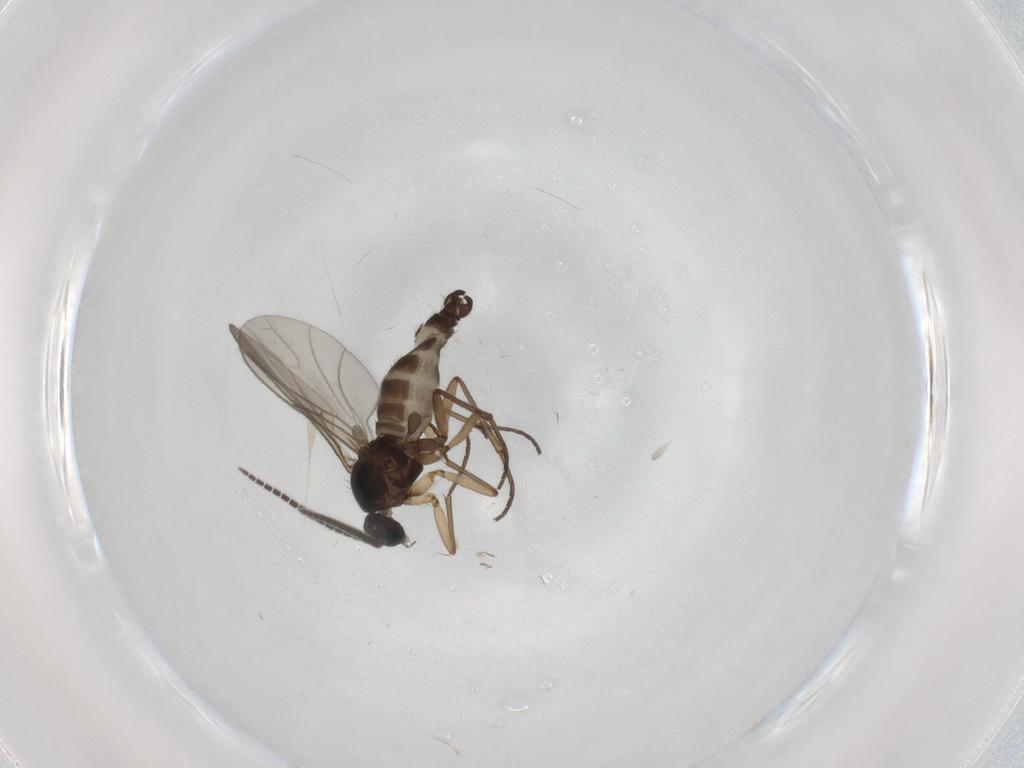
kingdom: Animalia
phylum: Arthropoda
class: Insecta
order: Diptera
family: Sciaridae
